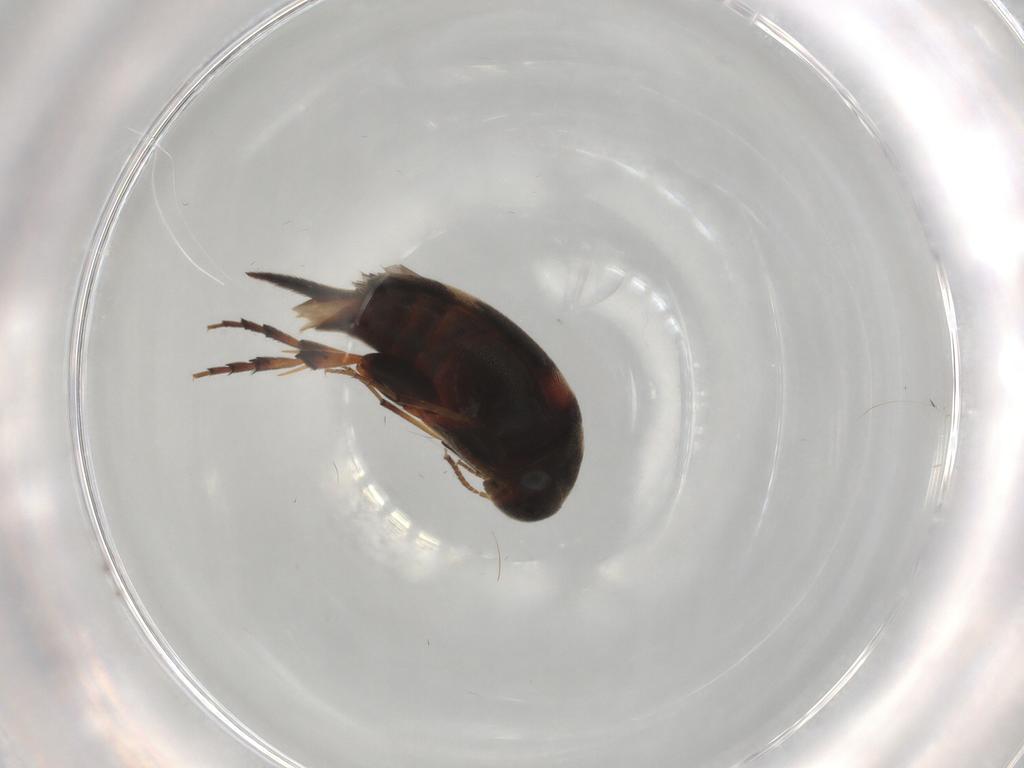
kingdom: Animalia
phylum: Arthropoda
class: Insecta
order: Coleoptera
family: Mordellidae
